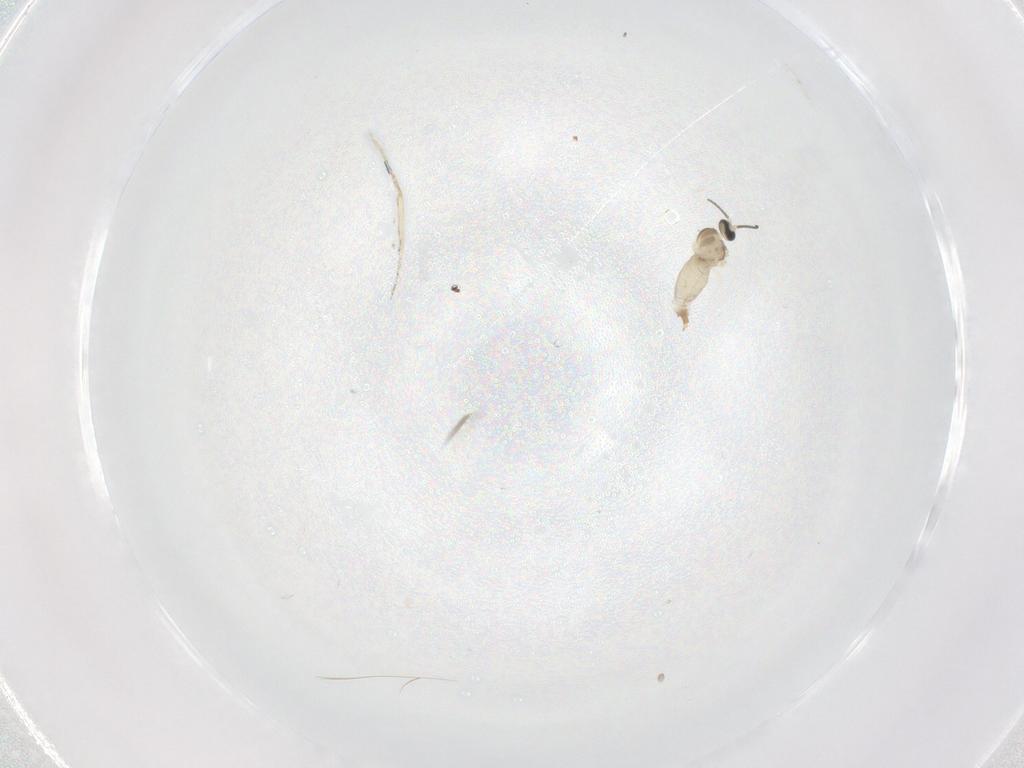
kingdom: Animalia
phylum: Arthropoda
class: Insecta
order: Diptera
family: Cecidomyiidae
